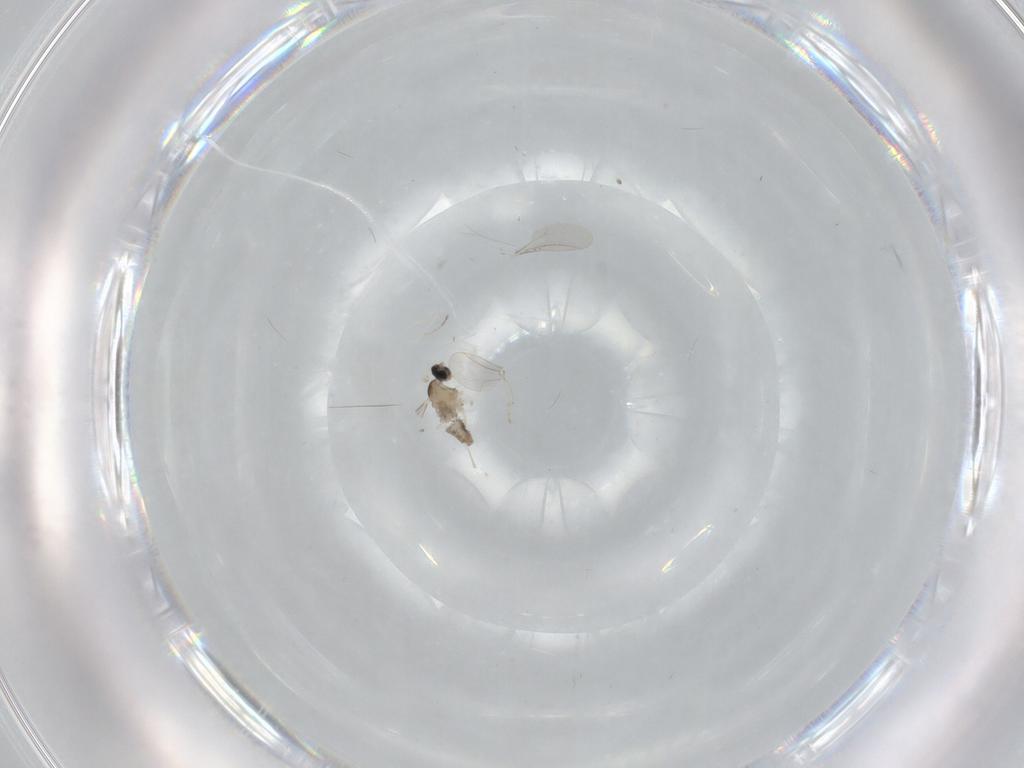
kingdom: Animalia
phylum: Arthropoda
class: Insecta
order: Diptera
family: Cecidomyiidae
